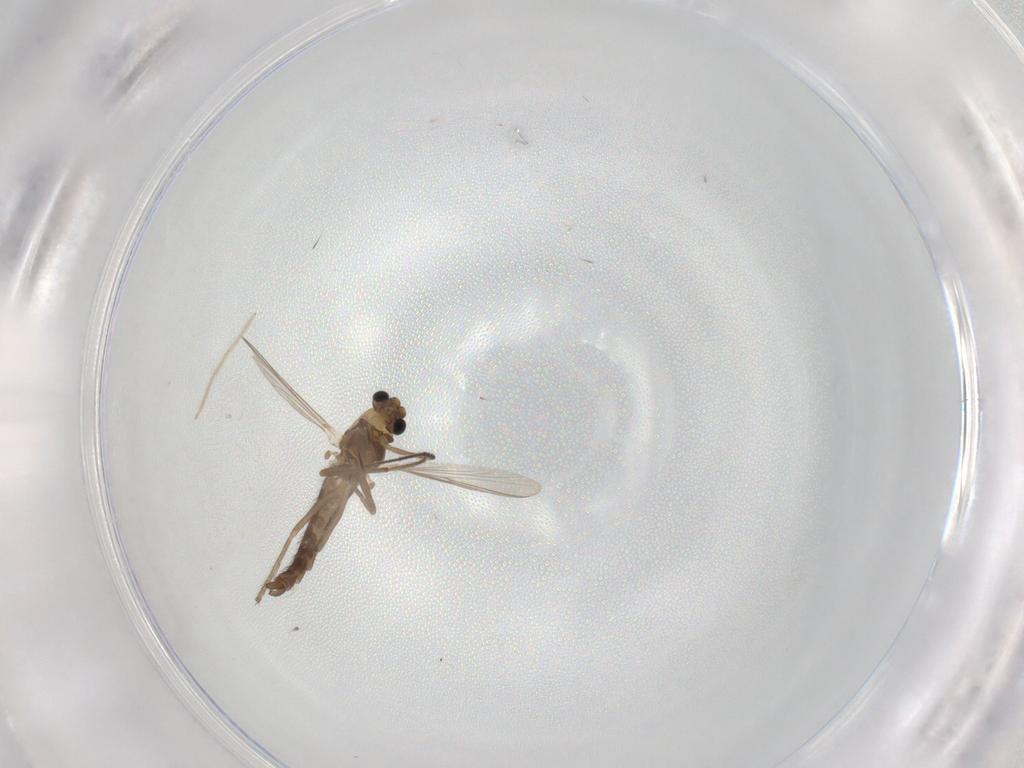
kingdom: Animalia
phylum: Arthropoda
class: Insecta
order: Diptera
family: Chironomidae
